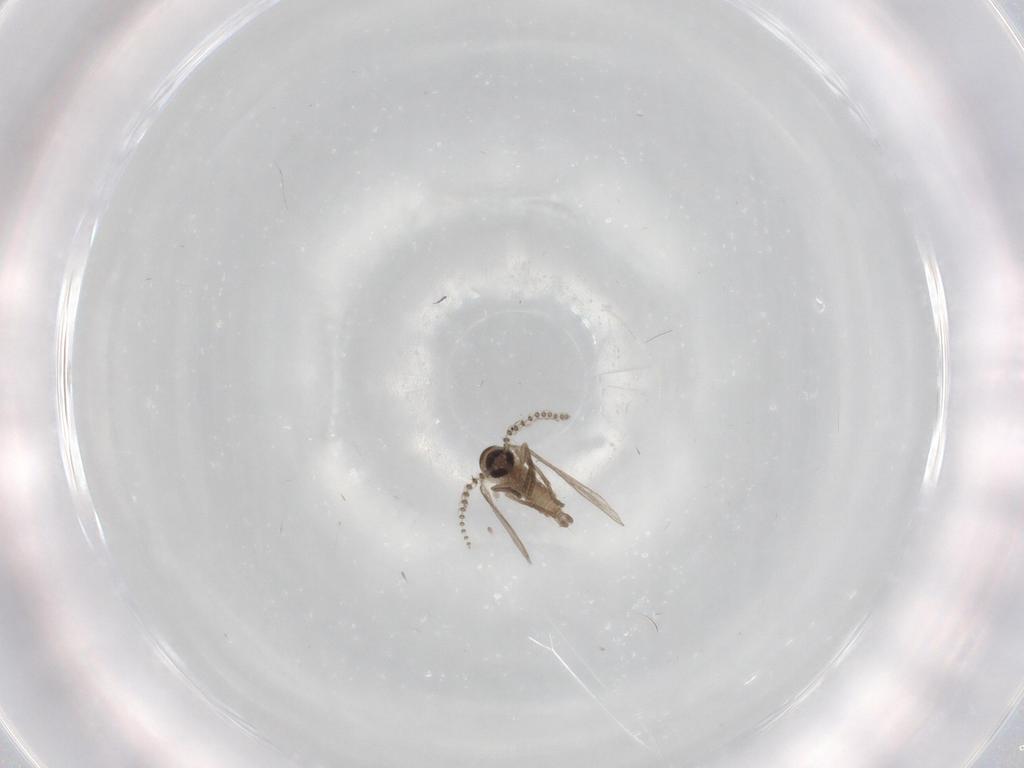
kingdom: Animalia
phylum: Arthropoda
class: Insecta
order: Diptera
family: Psychodidae
